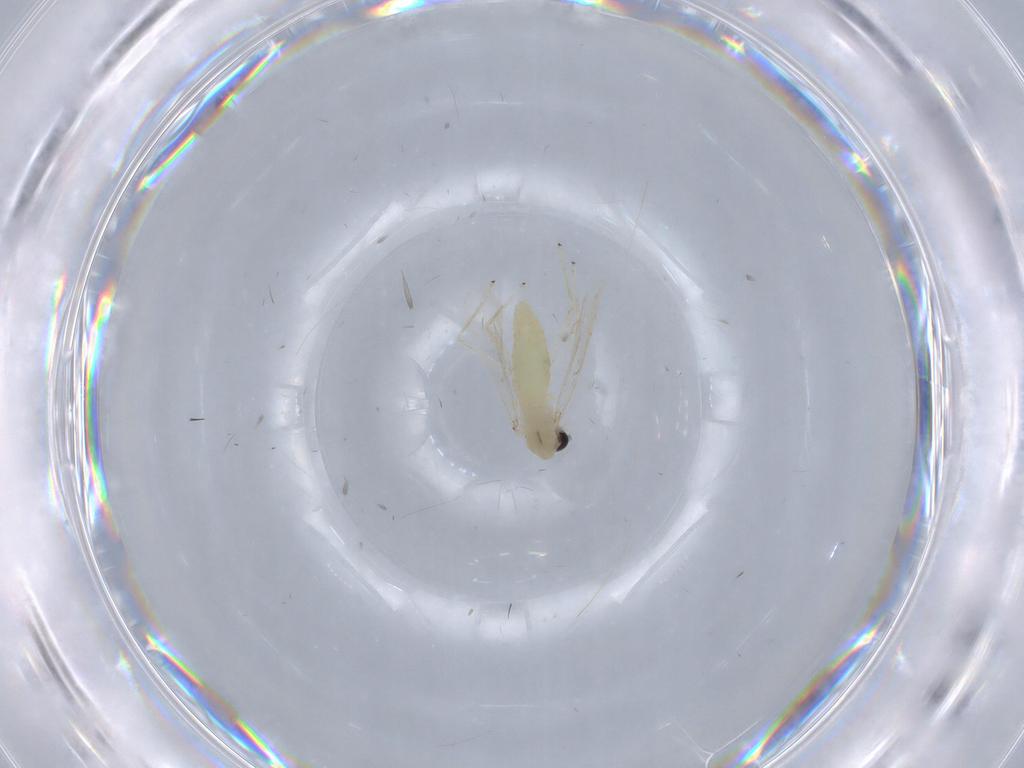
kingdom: Animalia
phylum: Arthropoda
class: Insecta
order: Diptera
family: Chironomidae
